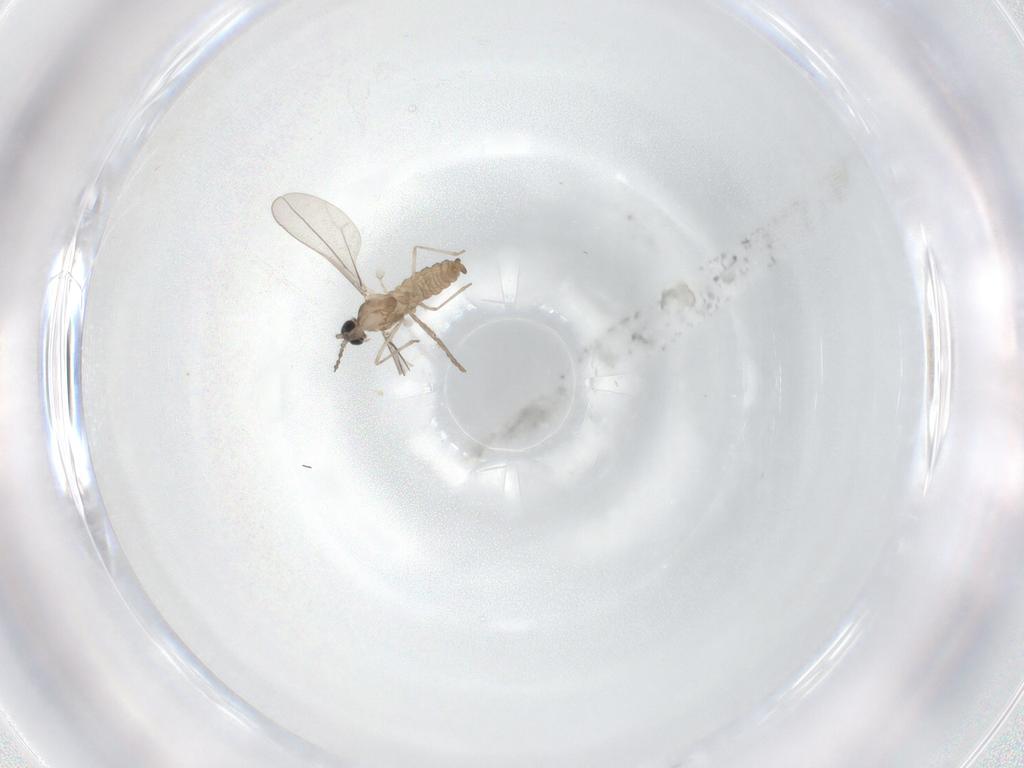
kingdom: Animalia
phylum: Arthropoda
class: Insecta
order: Diptera
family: Cecidomyiidae
